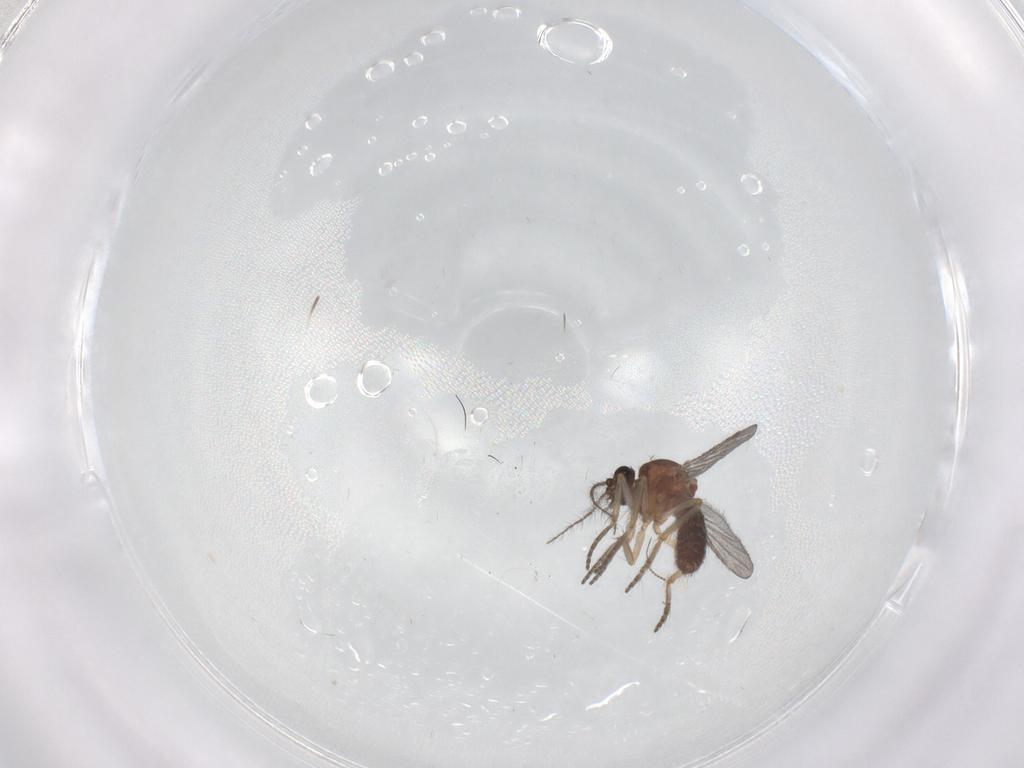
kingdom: Animalia
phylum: Arthropoda
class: Insecta
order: Diptera
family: Ceratopogonidae
